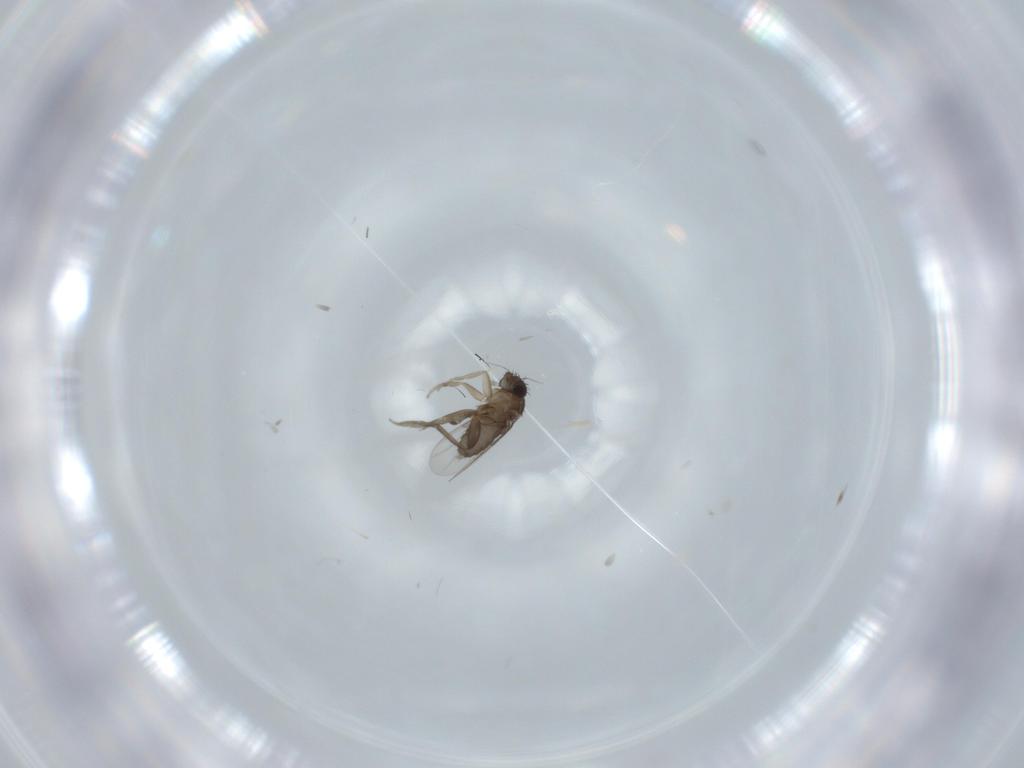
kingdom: Animalia
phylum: Arthropoda
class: Insecta
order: Diptera
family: Phoridae
